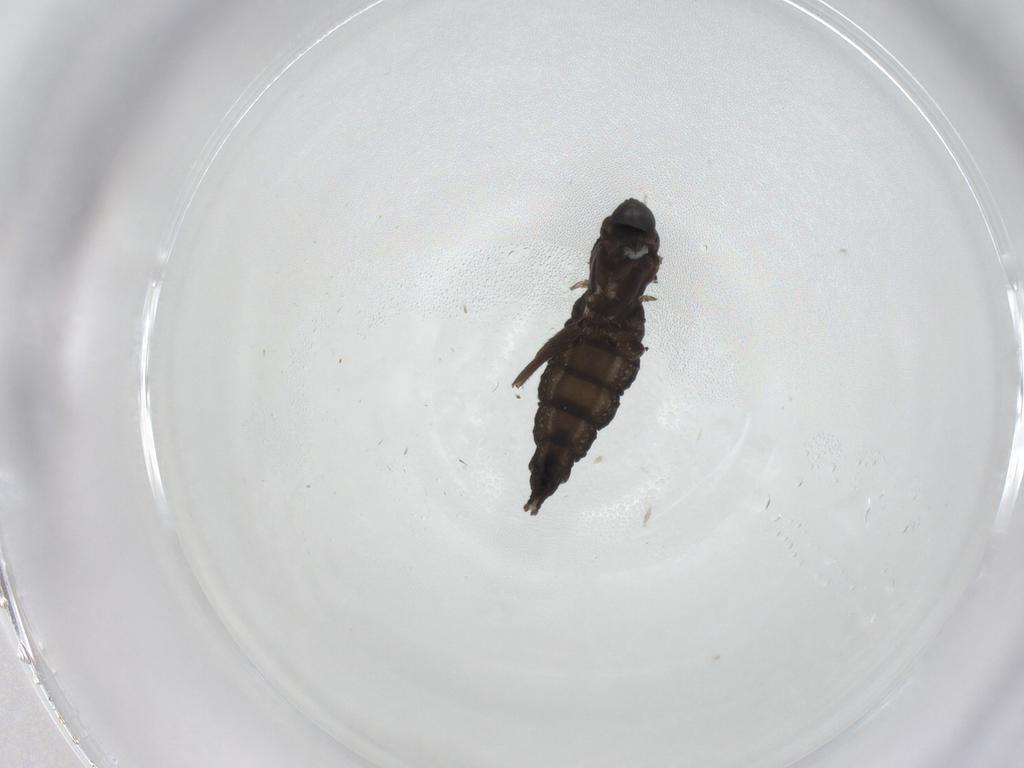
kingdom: Animalia
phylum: Arthropoda
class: Insecta
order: Diptera
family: Sciaridae
